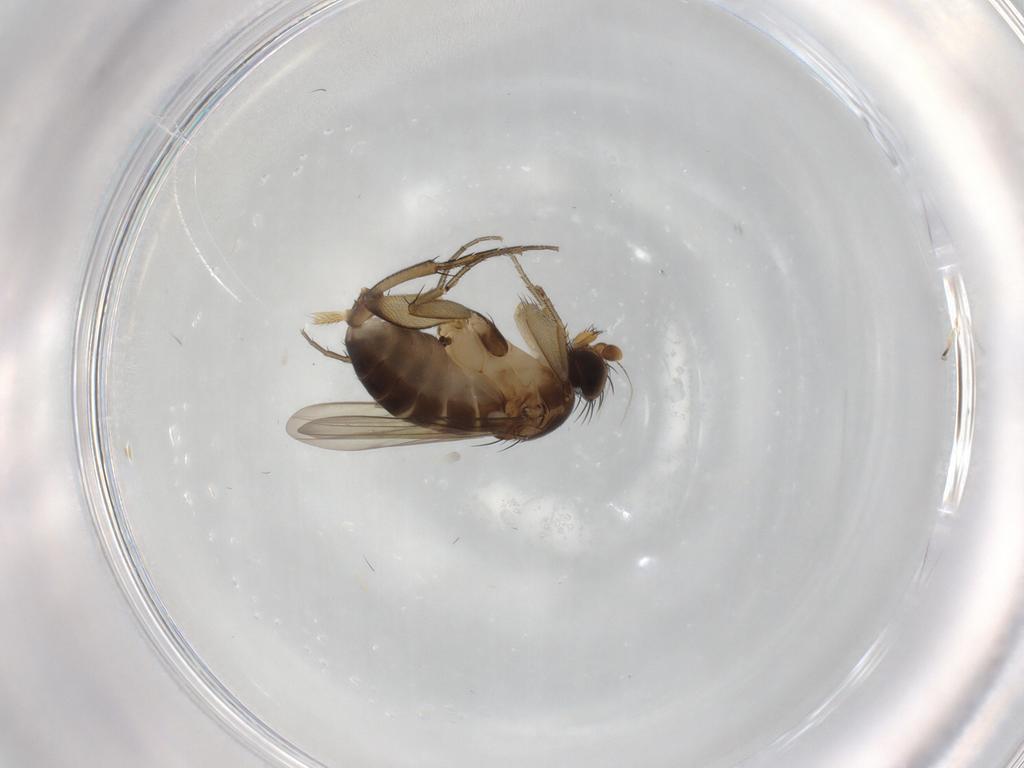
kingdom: Animalia
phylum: Arthropoda
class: Insecta
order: Diptera
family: Phoridae
